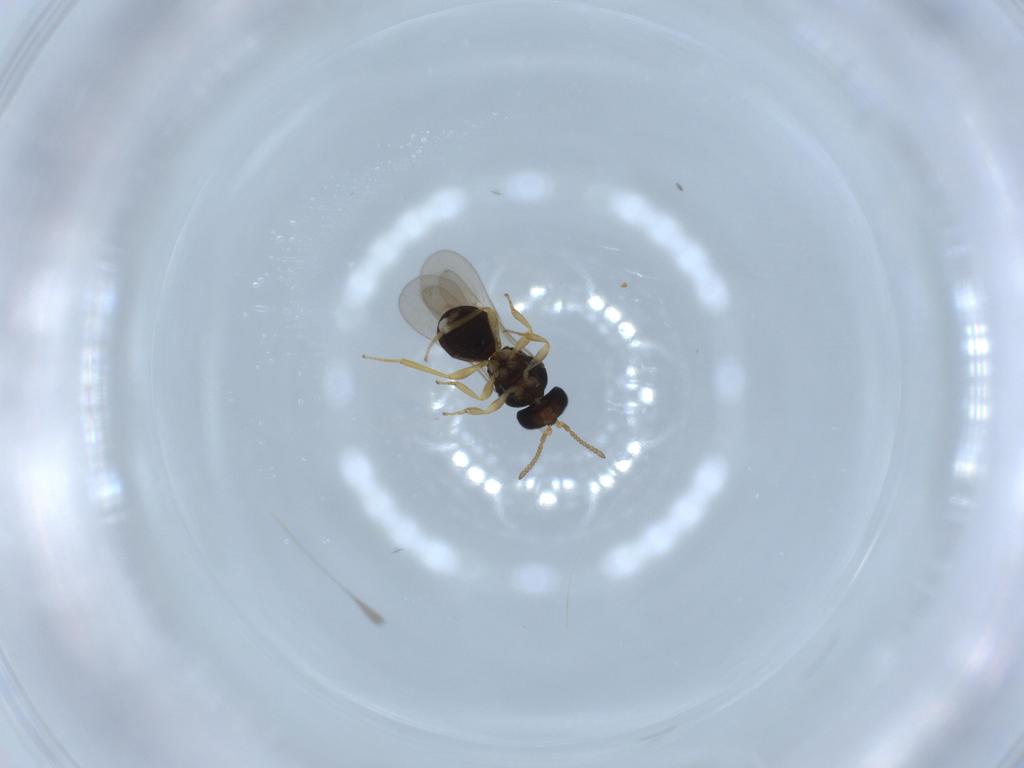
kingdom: Animalia
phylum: Arthropoda
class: Insecta
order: Hymenoptera
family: Scelionidae
